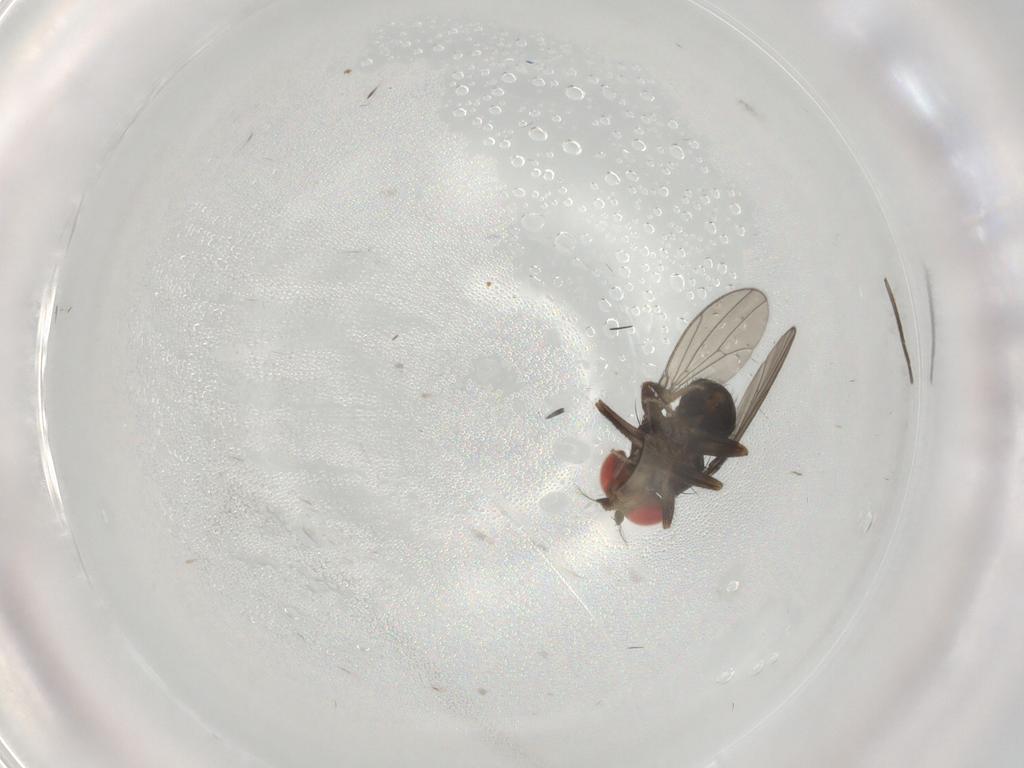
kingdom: Animalia
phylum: Arthropoda
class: Insecta
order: Diptera
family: Drosophilidae
